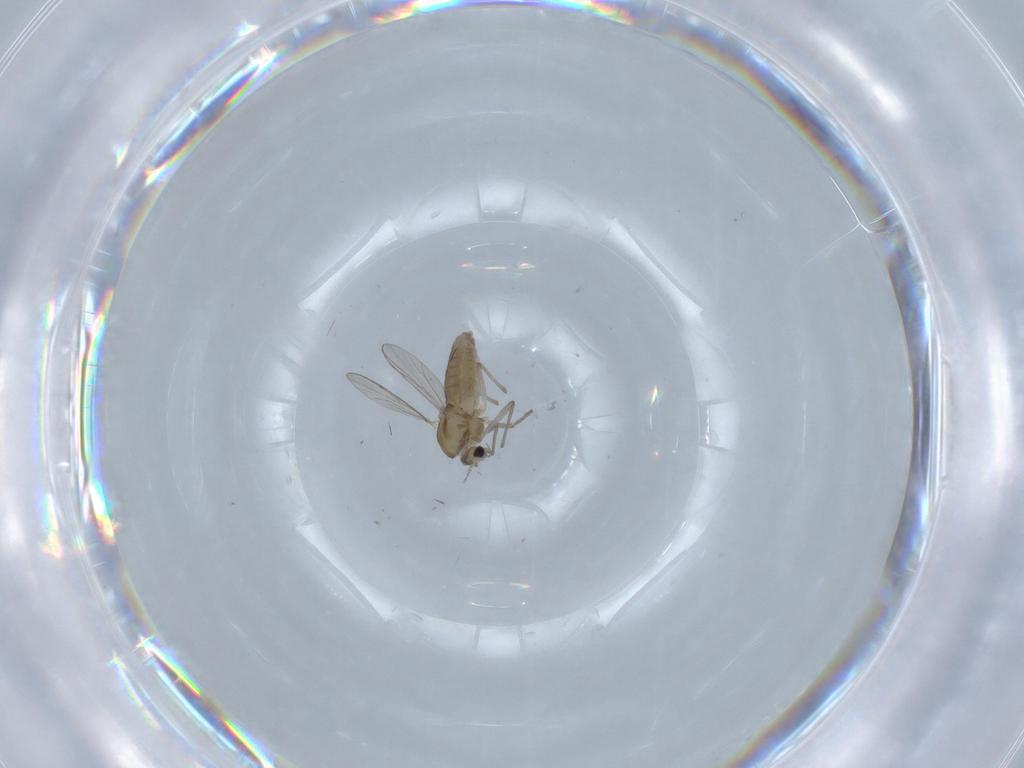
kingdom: Animalia
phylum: Arthropoda
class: Insecta
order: Diptera
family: Chironomidae
